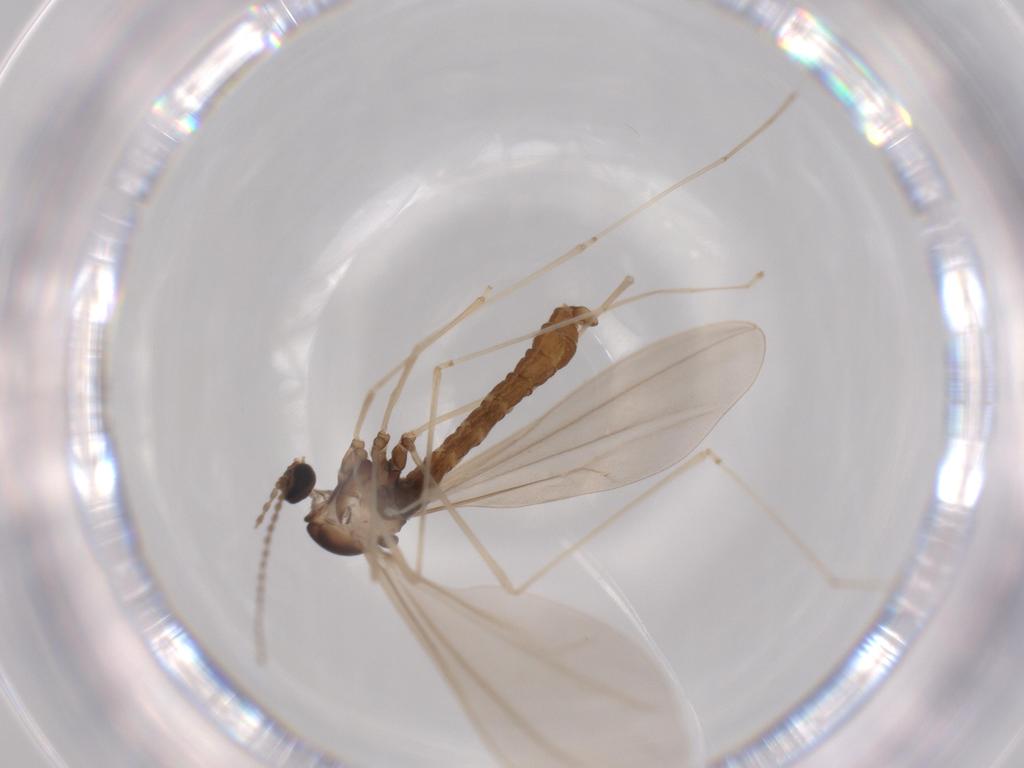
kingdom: Animalia
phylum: Arthropoda
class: Insecta
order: Diptera
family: Cecidomyiidae
